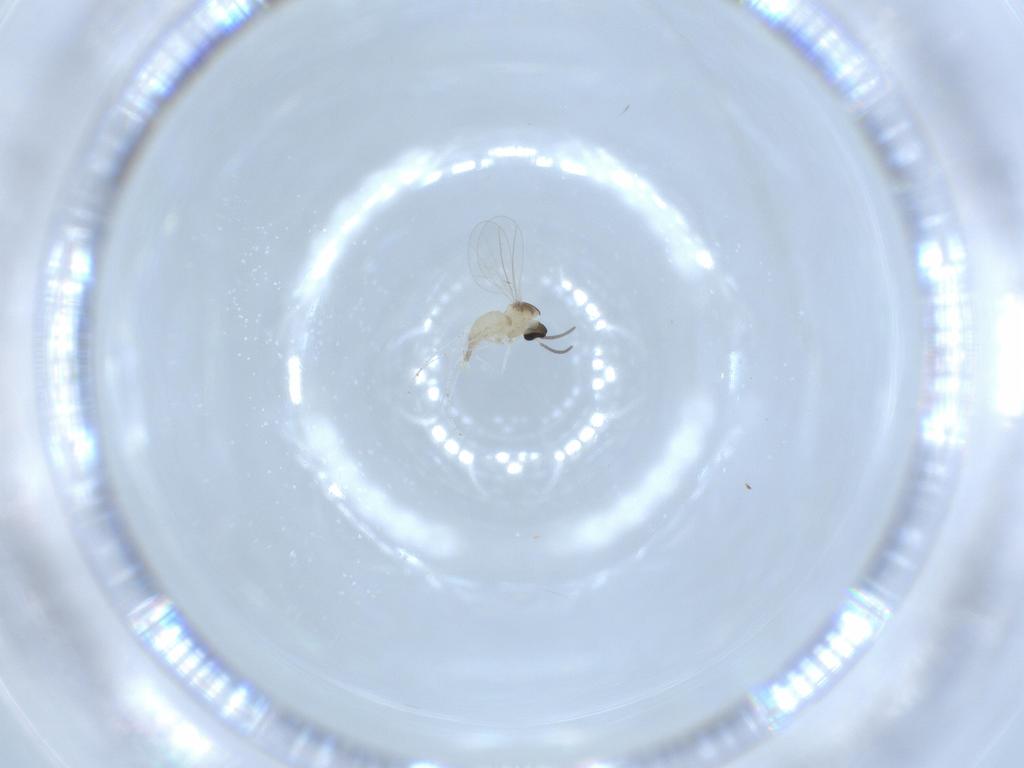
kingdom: Animalia
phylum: Arthropoda
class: Insecta
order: Diptera
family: Cecidomyiidae
